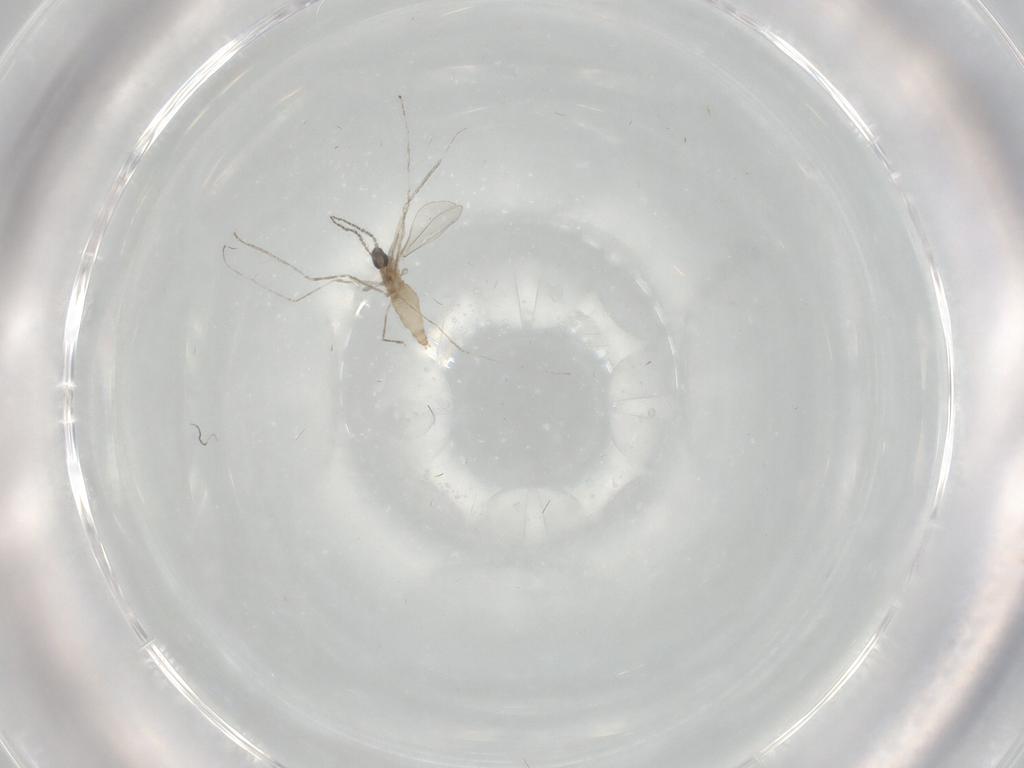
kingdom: Animalia
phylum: Arthropoda
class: Insecta
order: Diptera
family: Cecidomyiidae
